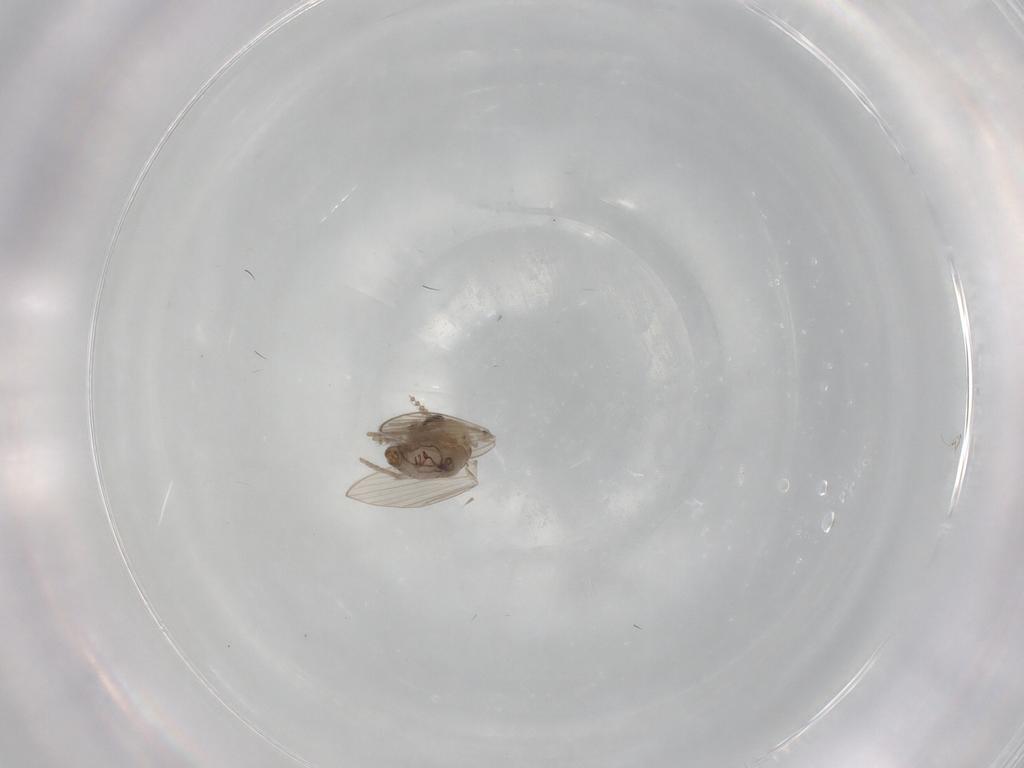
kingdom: Animalia
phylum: Arthropoda
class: Insecta
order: Diptera
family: Ceratopogonidae
